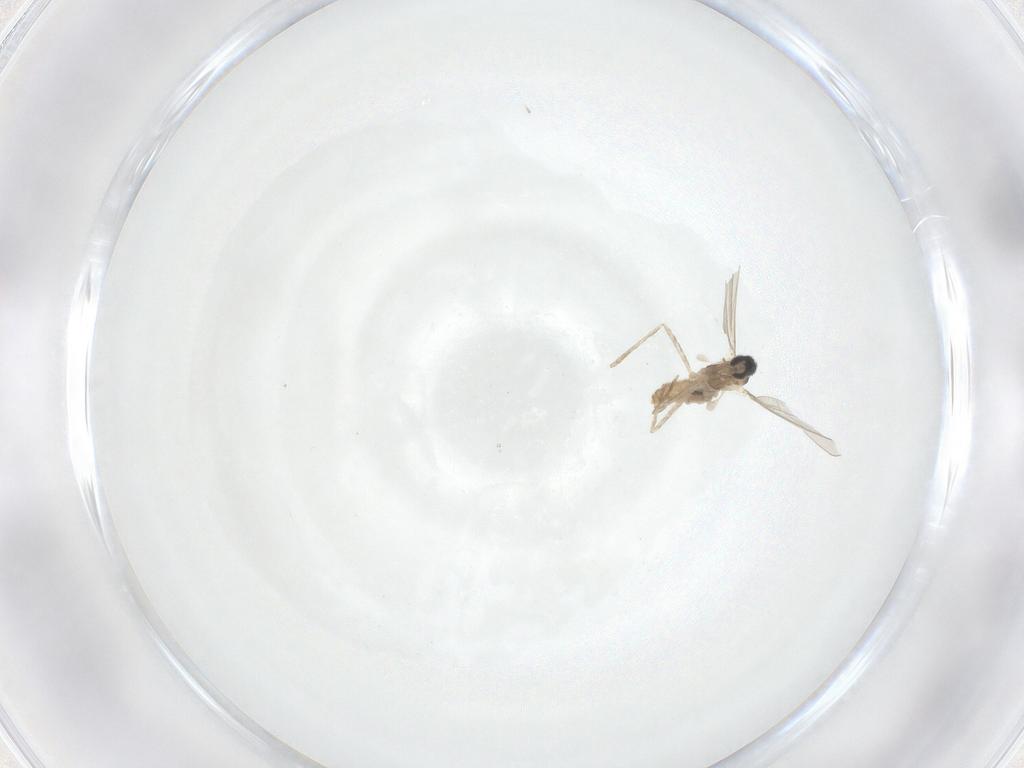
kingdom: Animalia
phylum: Arthropoda
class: Insecta
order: Diptera
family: Cecidomyiidae
